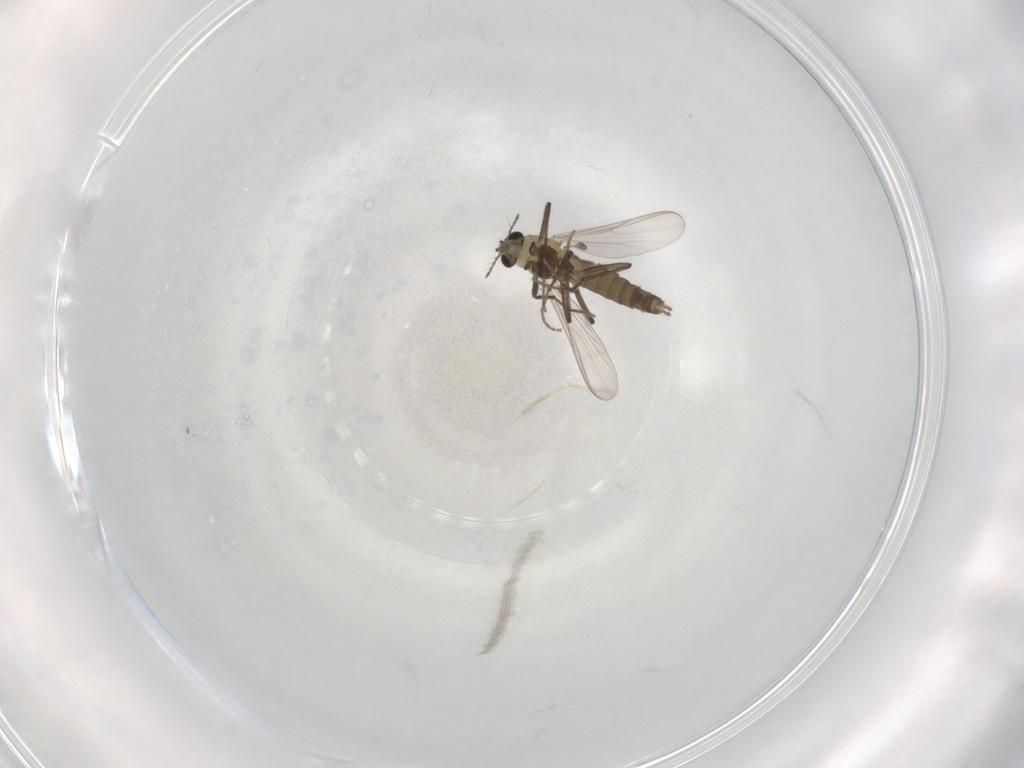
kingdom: Animalia
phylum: Arthropoda
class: Insecta
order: Diptera
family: Chironomidae
